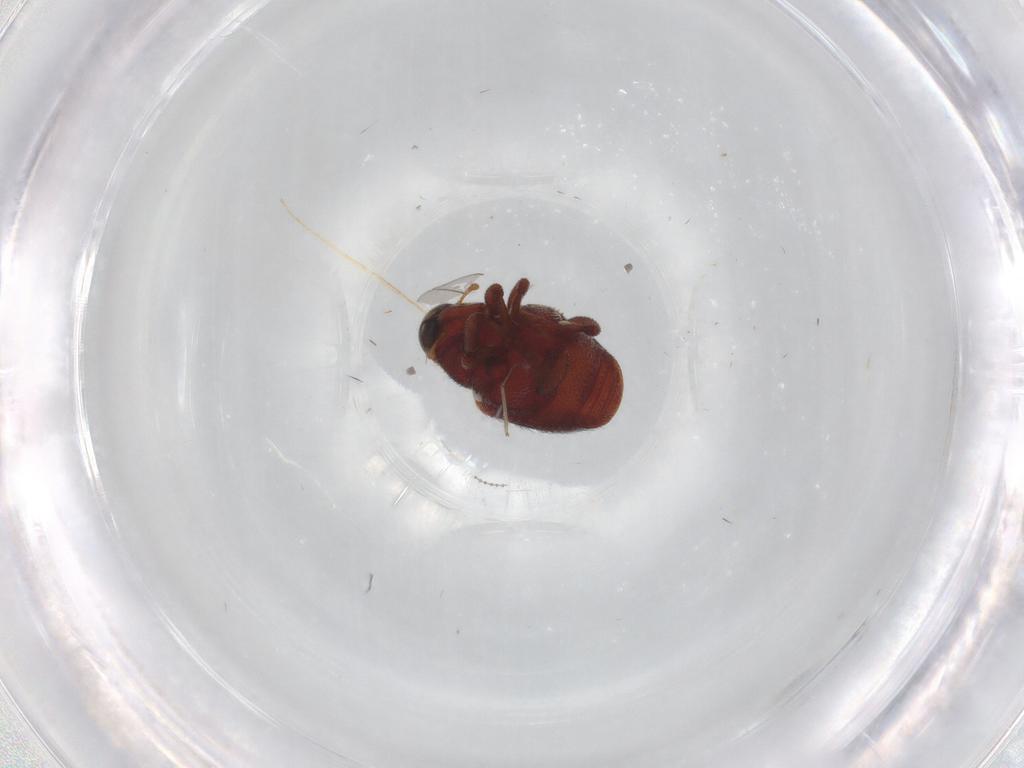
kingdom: Animalia
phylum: Arthropoda
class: Insecta
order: Coleoptera
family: Curculionidae
